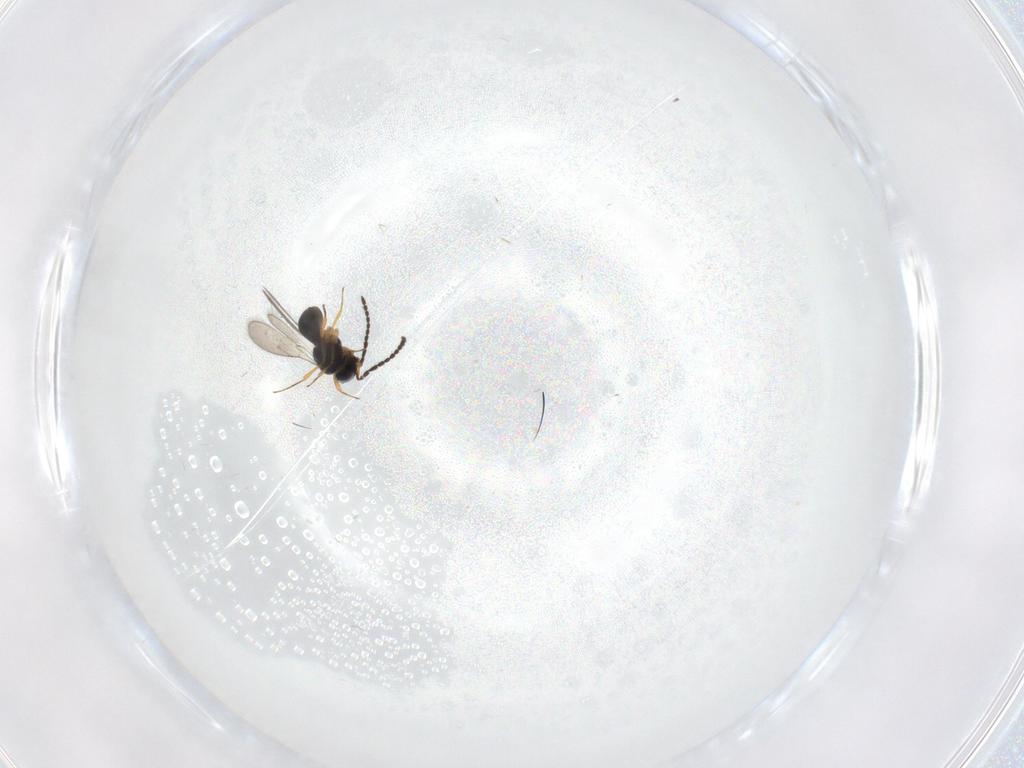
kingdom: Animalia
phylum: Arthropoda
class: Insecta
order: Hymenoptera
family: Scelionidae
